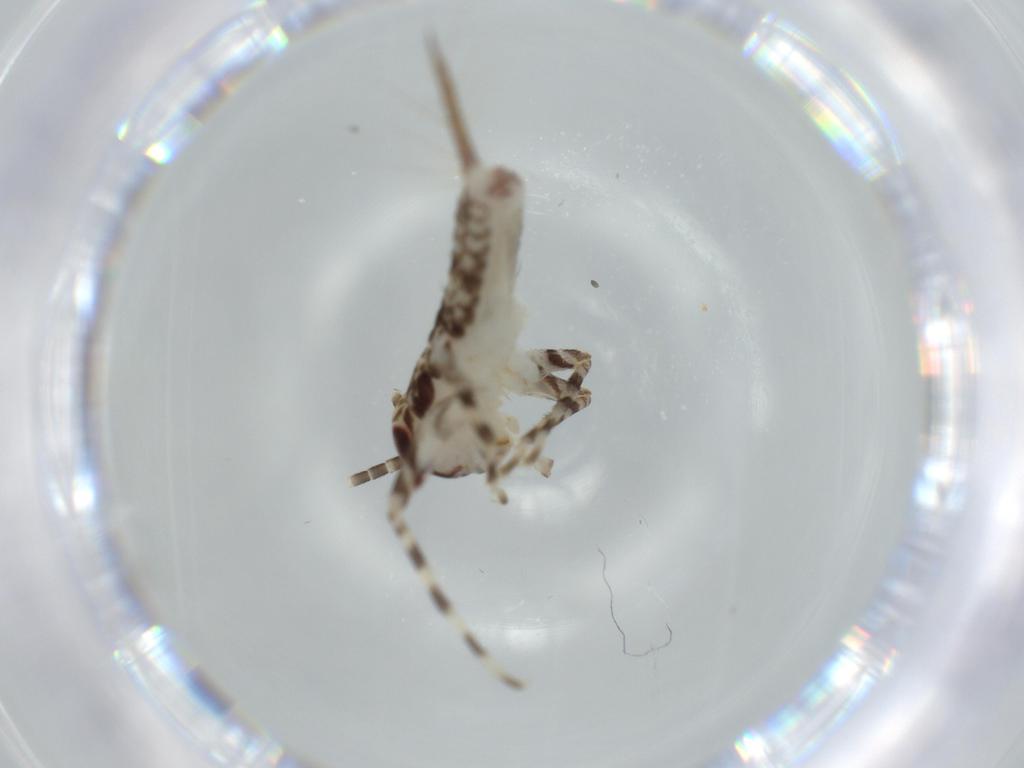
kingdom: Animalia
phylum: Arthropoda
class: Insecta
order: Orthoptera
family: Gryllidae
